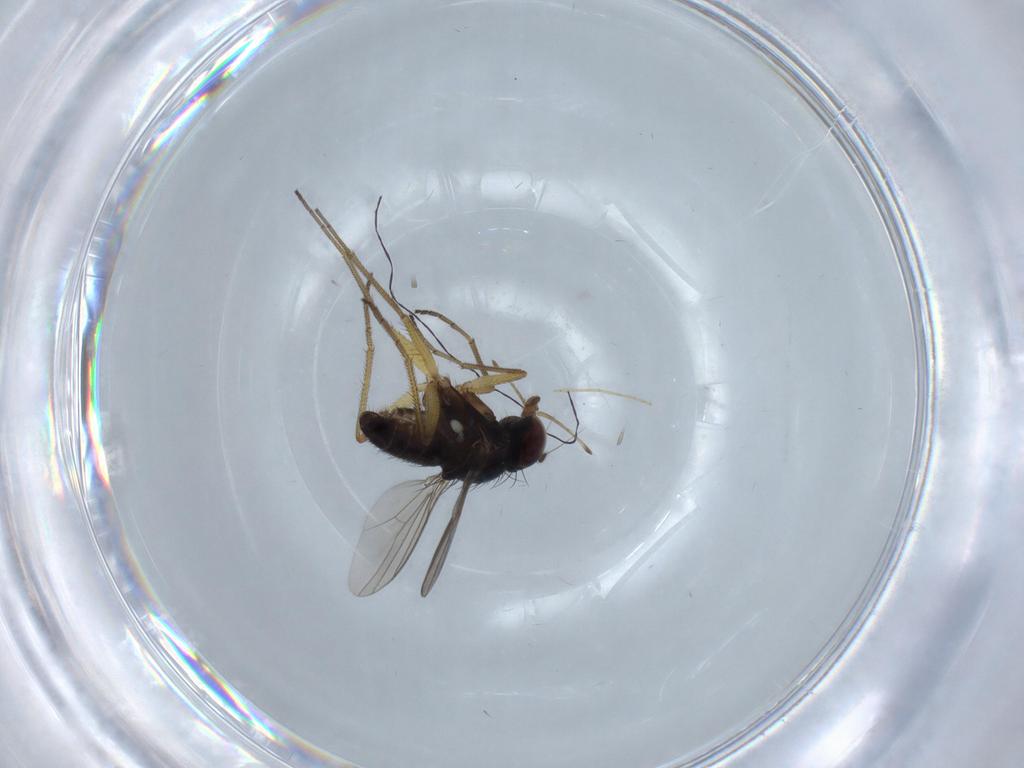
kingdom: Animalia
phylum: Arthropoda
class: Insecta
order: Diptera
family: Dolichopodidae
